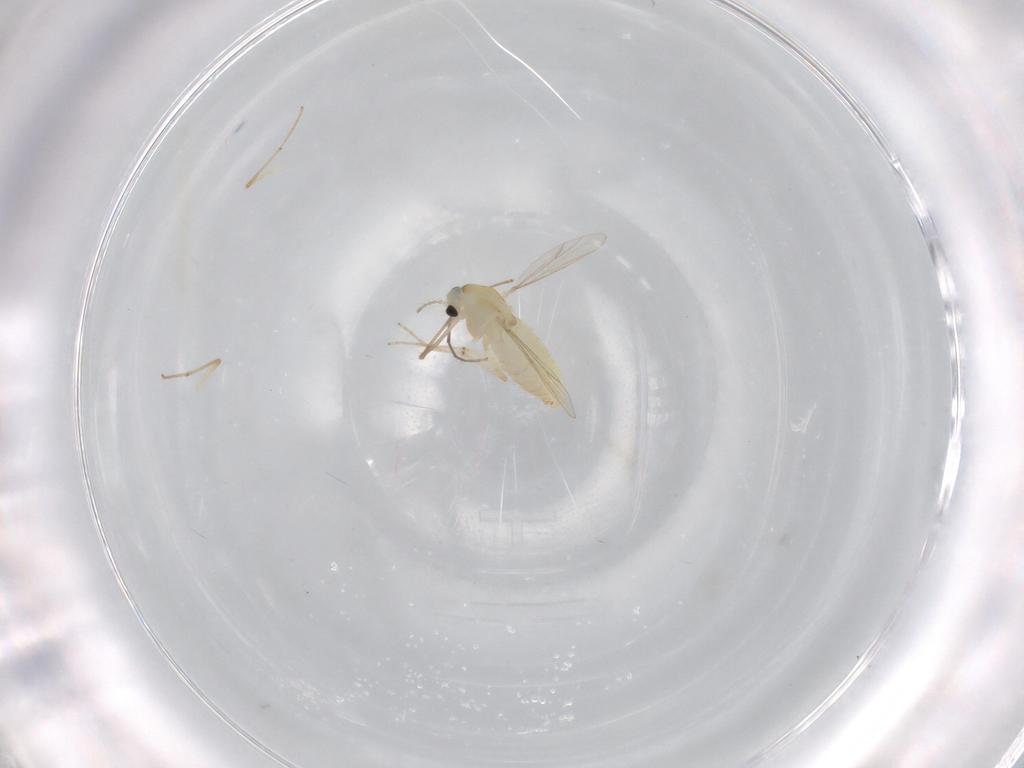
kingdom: Animalia
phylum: Arthropoda
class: Insecta
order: Diptera
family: Chironomidae
